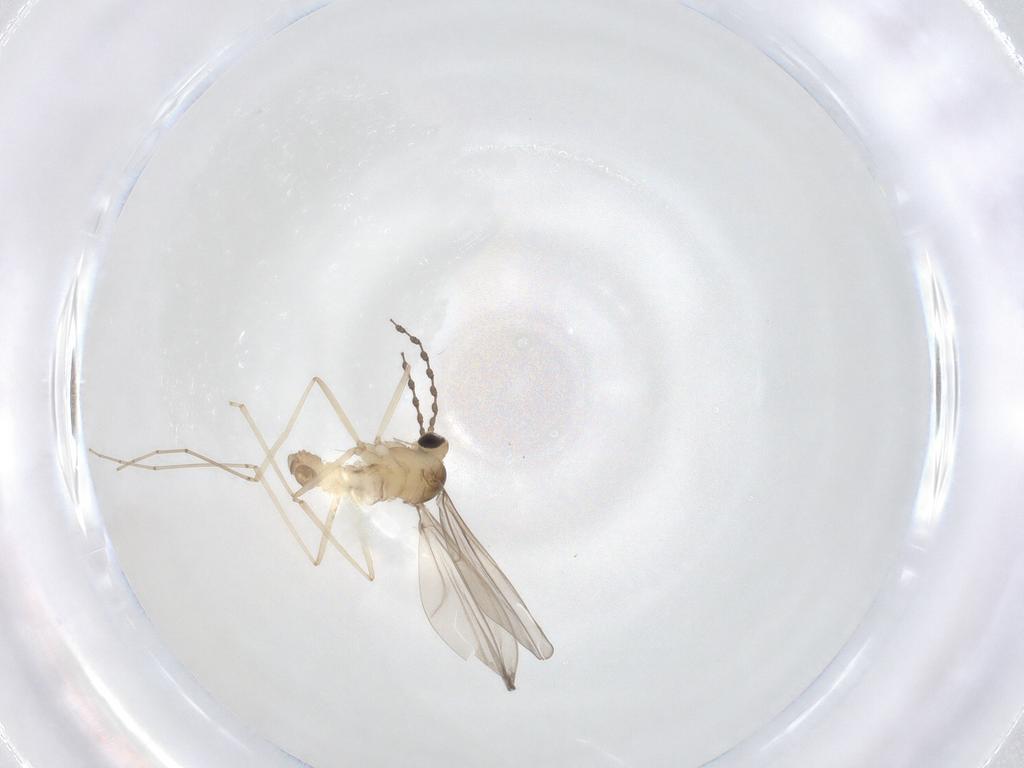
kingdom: Animalia
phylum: Arthropoda
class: Insecta
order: Diptera
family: Cecidomyiidae
